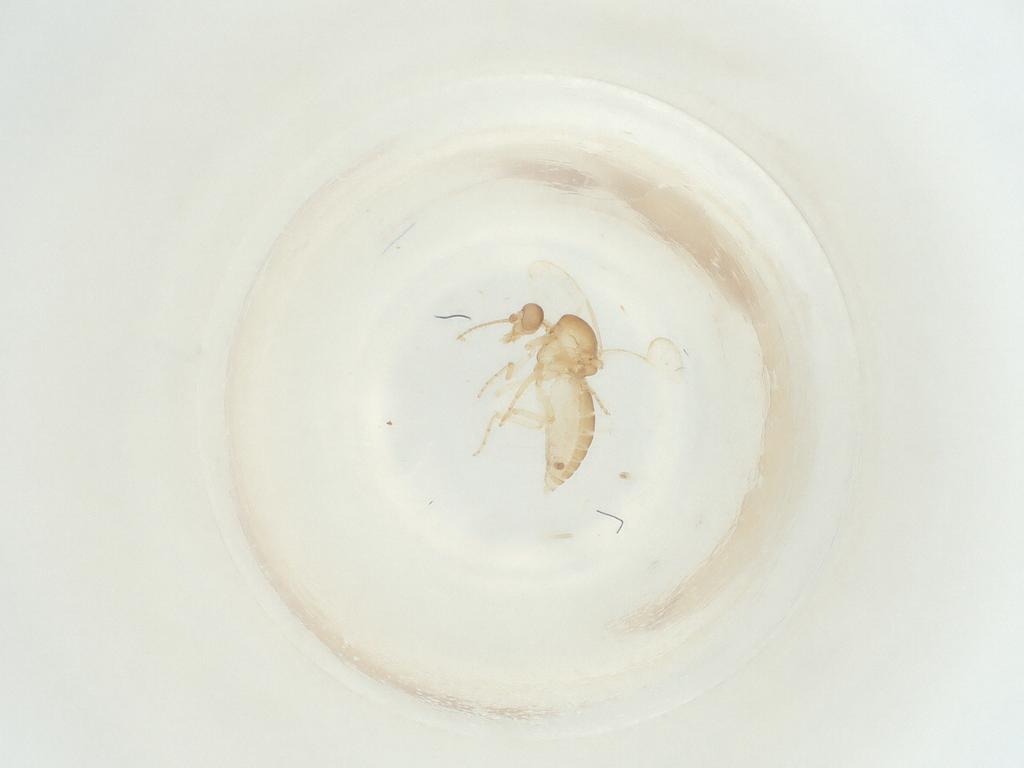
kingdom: Animalia
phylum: Arthropoda
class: Insecta
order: Diptera
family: Ceratopogonidae
